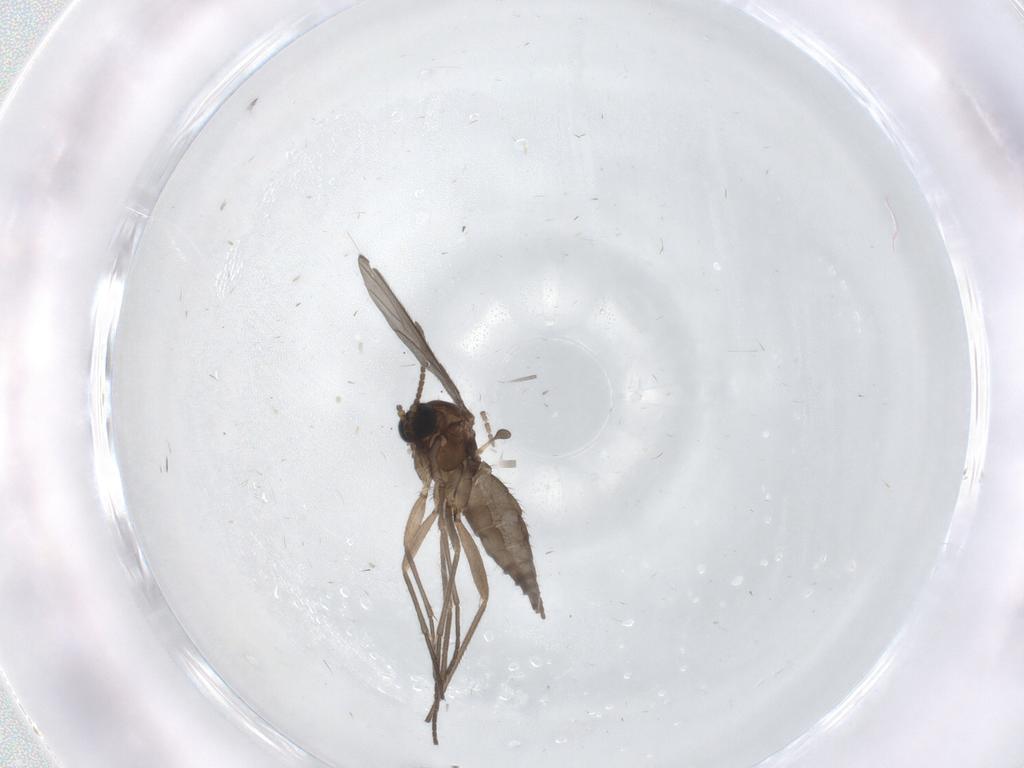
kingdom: Animalia
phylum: Arthropoda
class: Insecta
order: Diptera
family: Sciaridae
